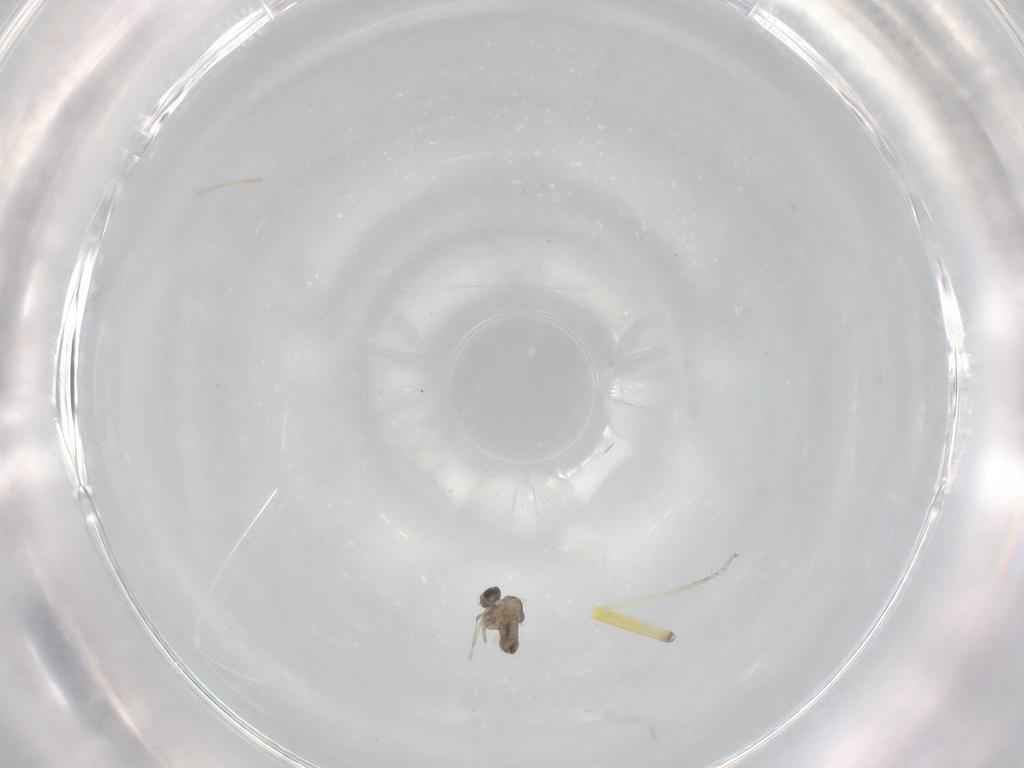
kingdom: Animalia
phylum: Arthropoda
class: Insecta
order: Diptera
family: Cecidomyiidae
